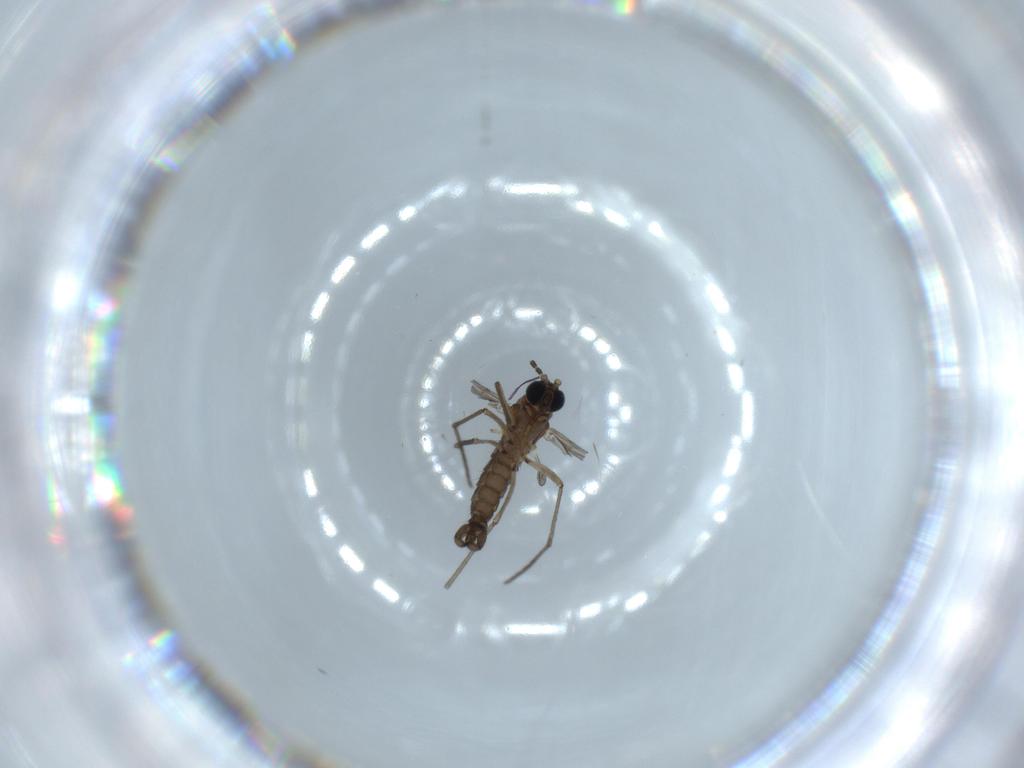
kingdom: Animalia
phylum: Arthropoda
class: Insecta
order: Diptera
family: Sciaridae
